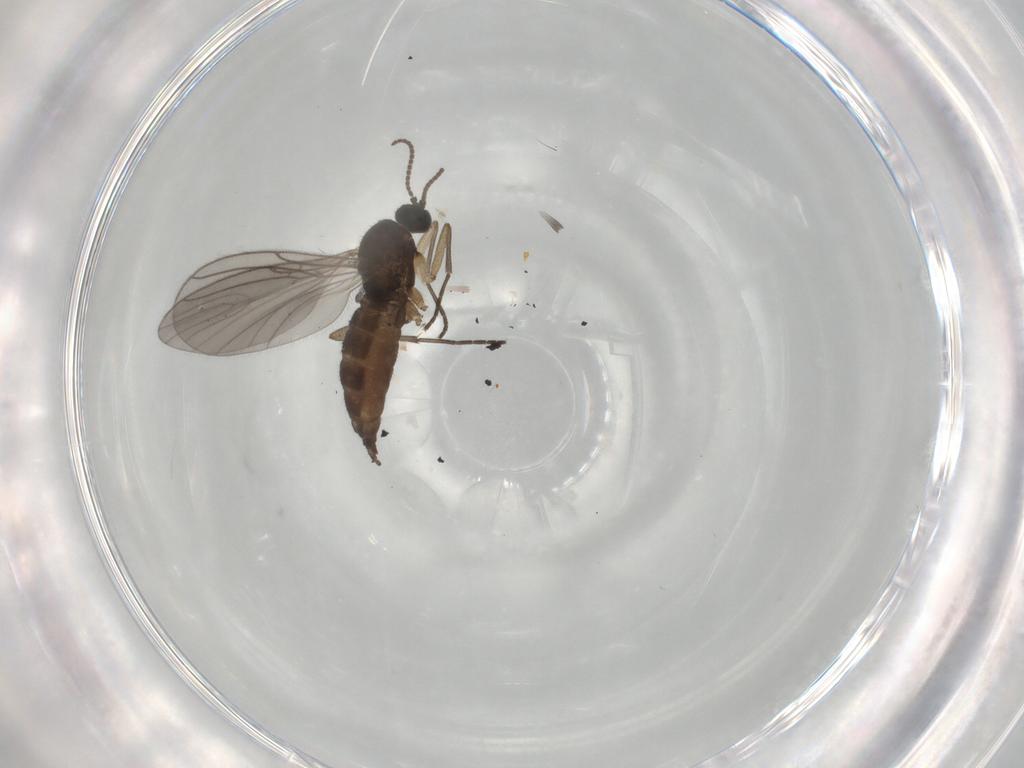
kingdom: Animalia
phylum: Arthropoda
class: Insecta
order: Diptera
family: Sciaridae
